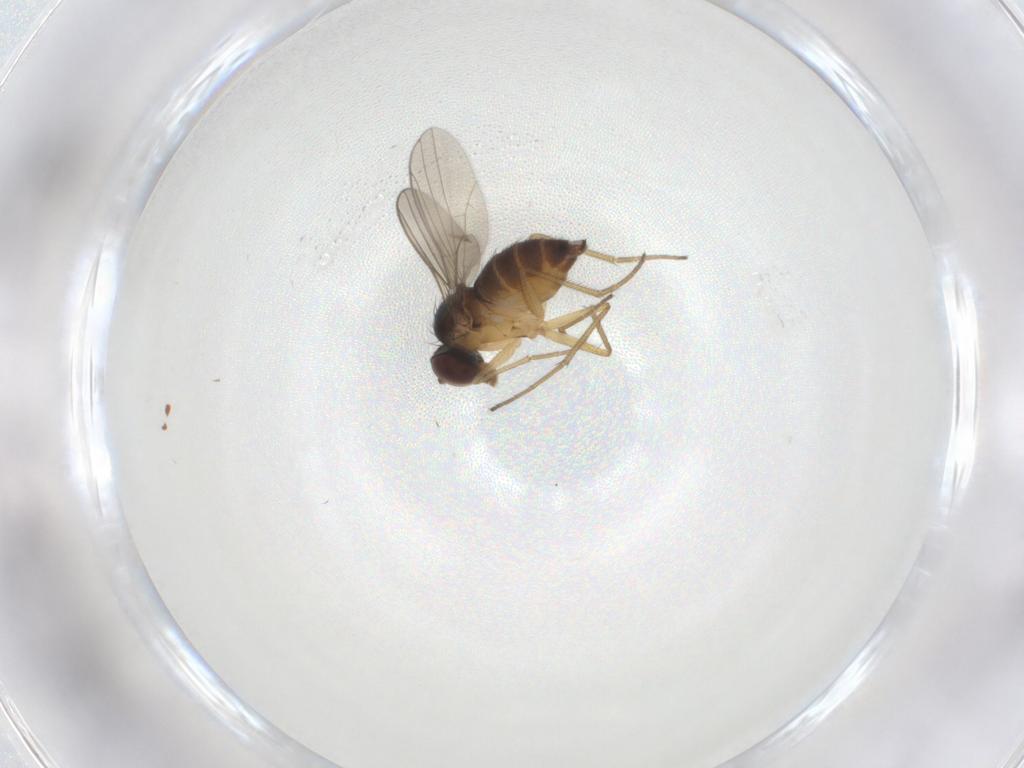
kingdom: Animalia
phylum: Arthropoda
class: Insecta
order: Diptera
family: Dolichopodidae
